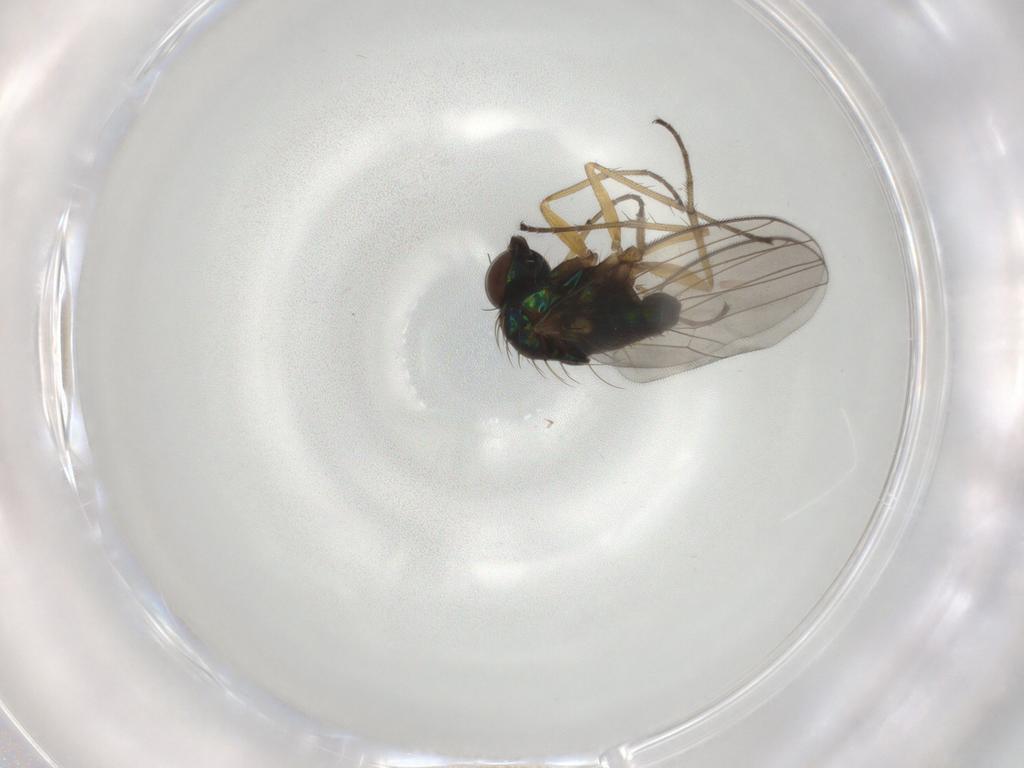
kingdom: Animalia
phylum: Arthropoda
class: Insecta
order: Diptera
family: Dolichopodidae
